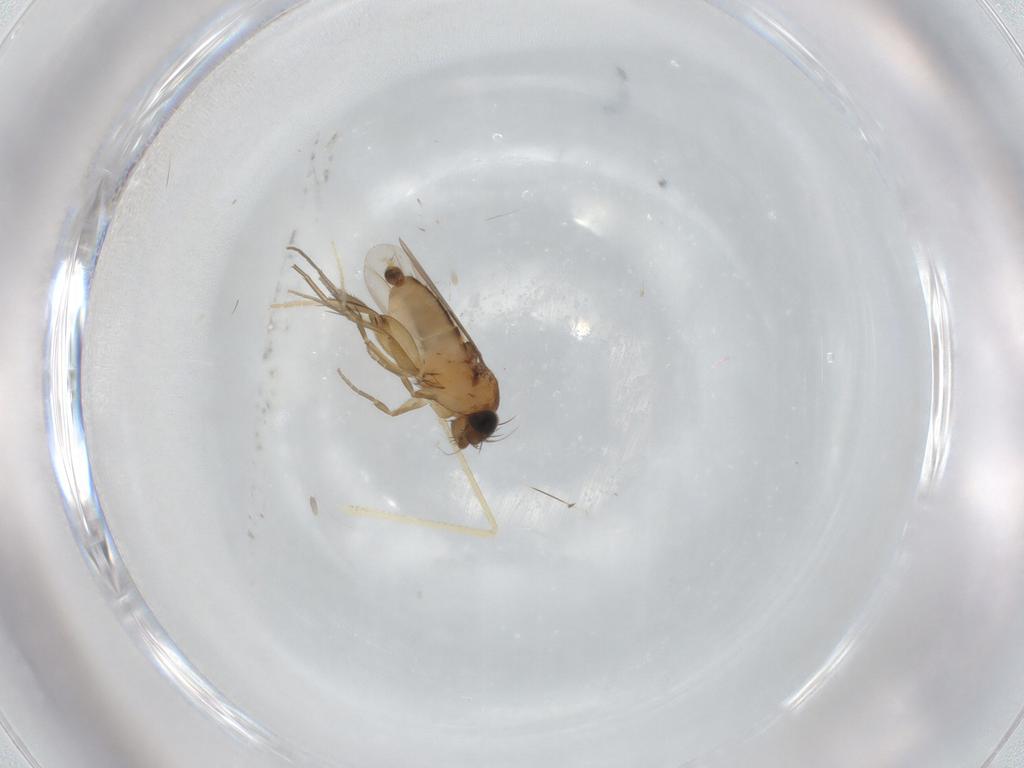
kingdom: Animalia
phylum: Arthropoda
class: Insecta
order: Diptera
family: Phoridae
